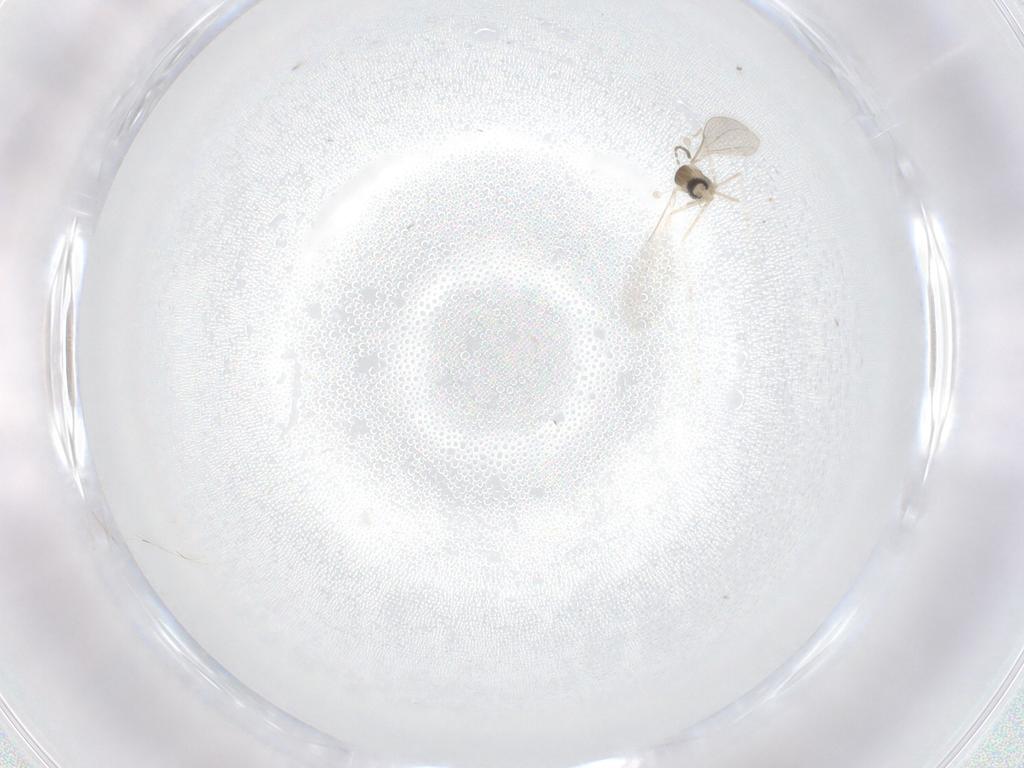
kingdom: Animalia
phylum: Arthropoda
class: Insecta
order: Diptera
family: Cecidomyiidae
